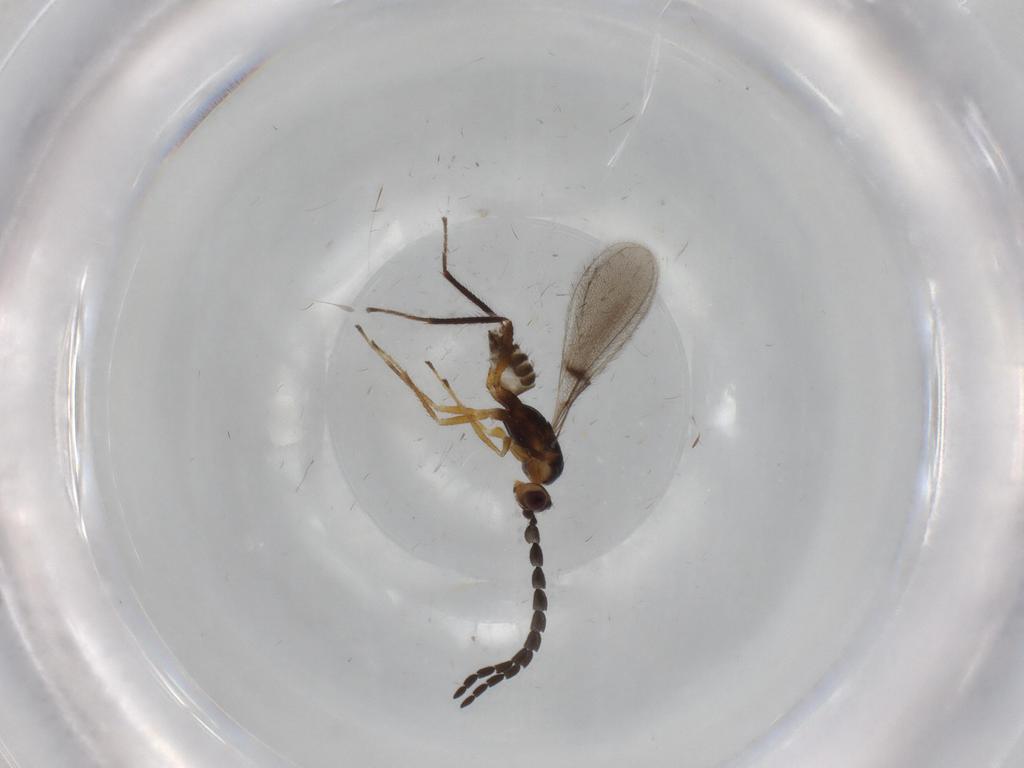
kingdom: Animalia
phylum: Arthropoda
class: Insecta
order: Hymenoptera
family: Mymaridae
